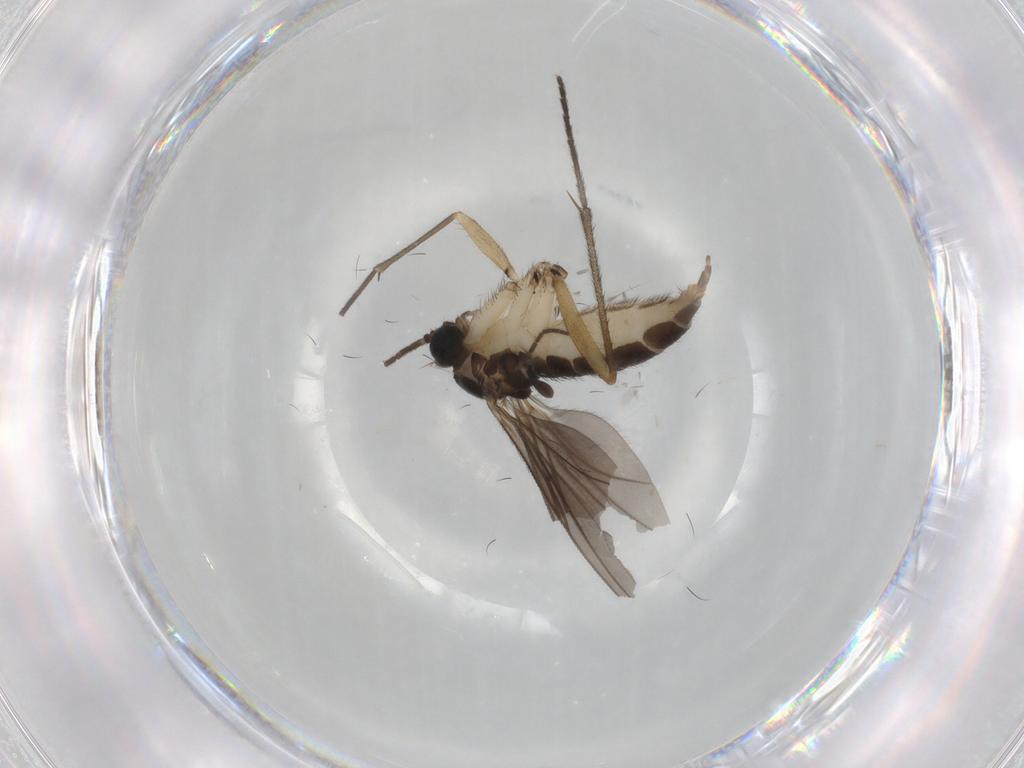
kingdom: Animalia
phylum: Arthropoda
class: Insecta
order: Diptera
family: Sciaridae
